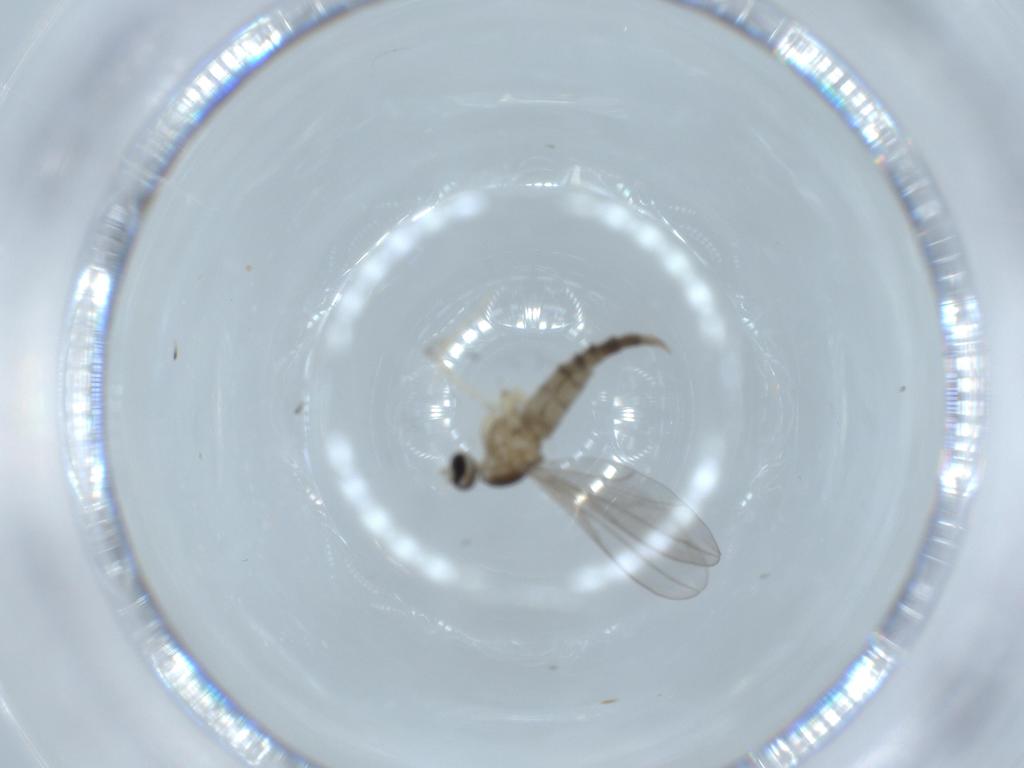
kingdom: Animalia
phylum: Arthropoda
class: Insecta
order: Diptera
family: Cecidomyiidae
